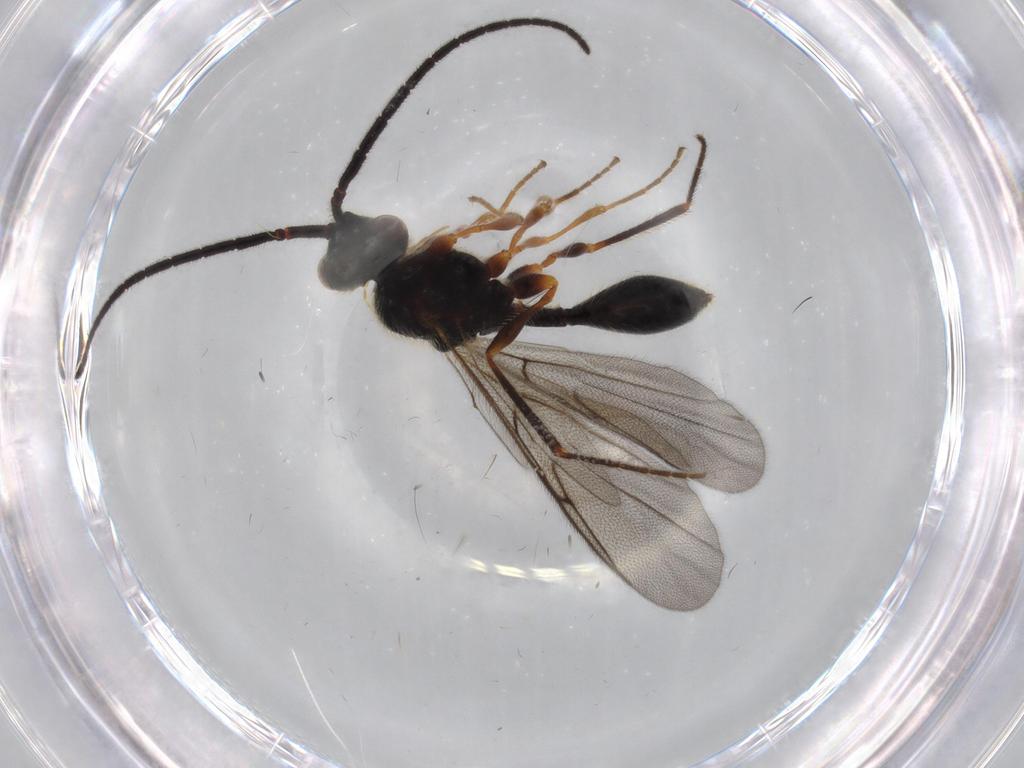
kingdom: Animalia
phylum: Arthropoda
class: Insecta
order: Hymenoptera
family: Diapriidae
